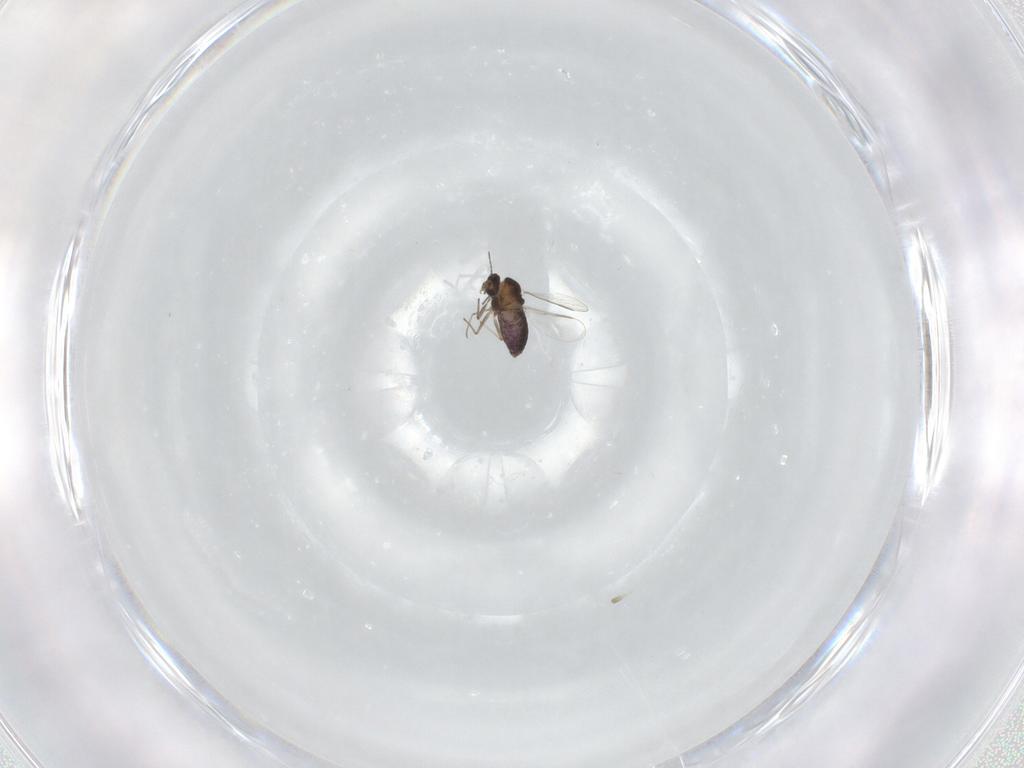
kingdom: Animalia
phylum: Arthropoda
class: Insecta
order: Diptera
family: Chironomidae
